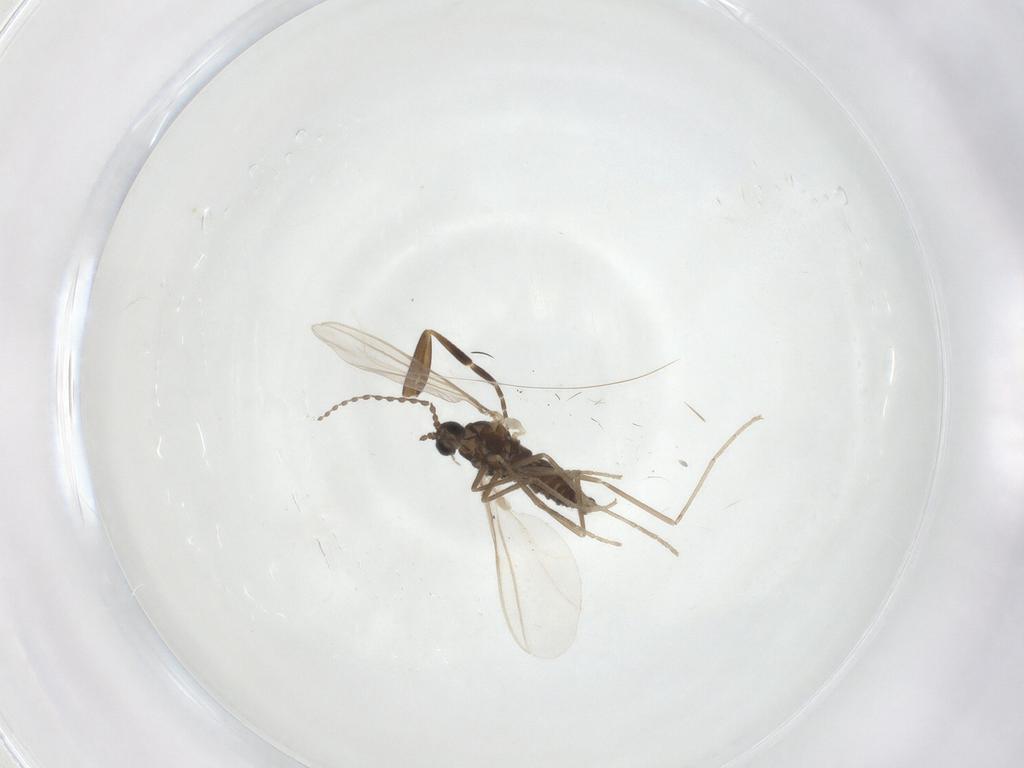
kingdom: Animalia
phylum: Arthropoda
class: Insecta
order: Diptera
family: Cecidomyiidae
